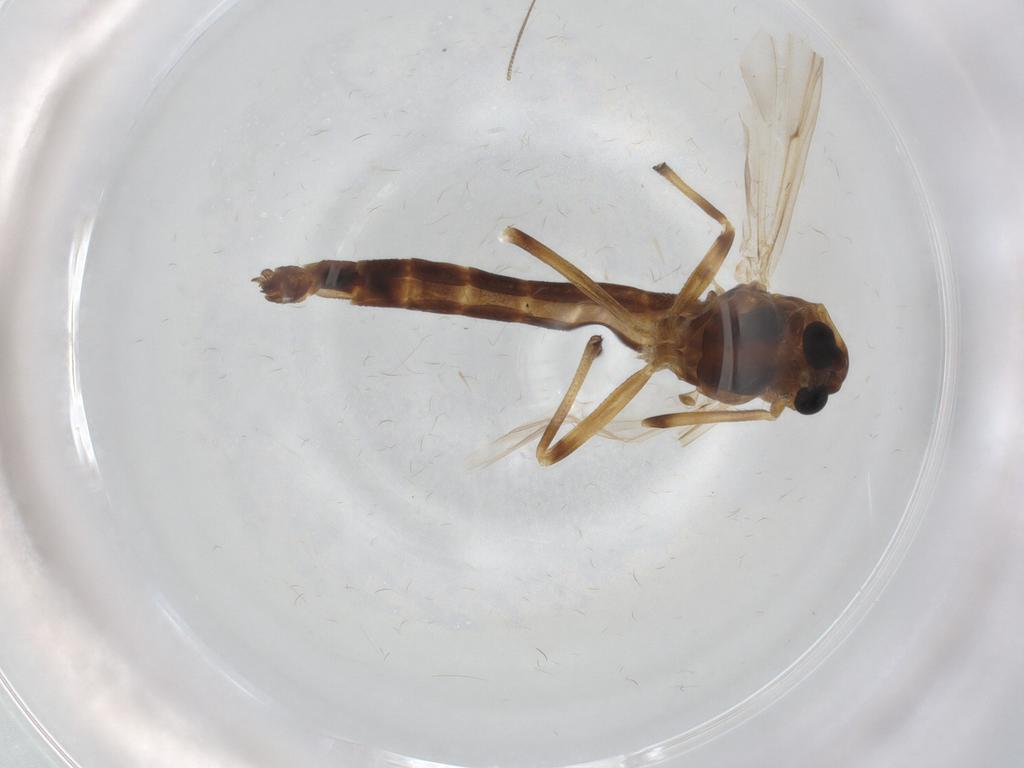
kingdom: Animalia
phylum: Arthropoda
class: Insecta
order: Diptera
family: Chironomidae
